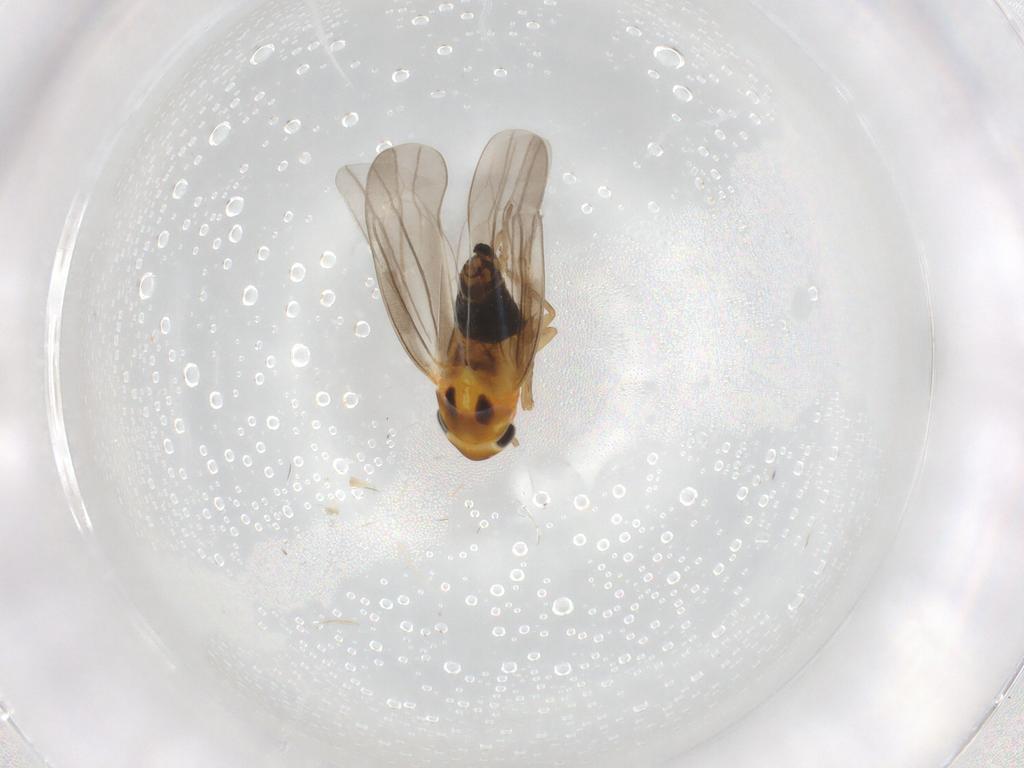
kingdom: Animalia
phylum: Arthropoda
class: Insecta
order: Hemiptera
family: Cicadellidae
